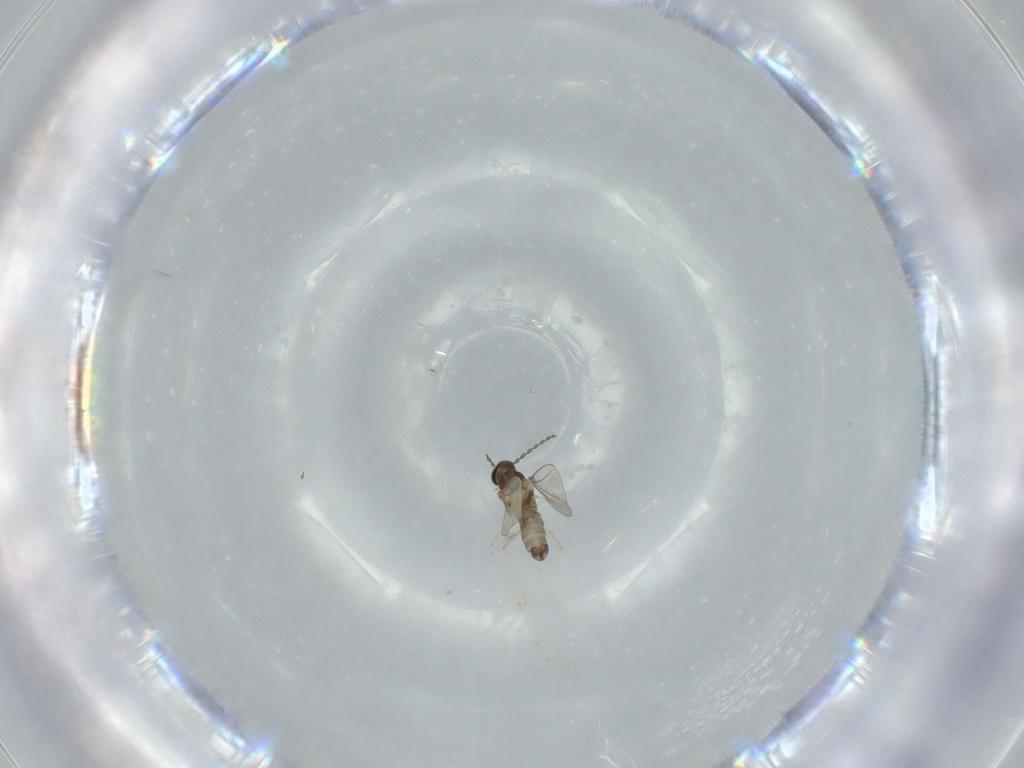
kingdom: Animalia
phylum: Arthropoda
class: Insecta
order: Diptera
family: Cecidomyiidae
